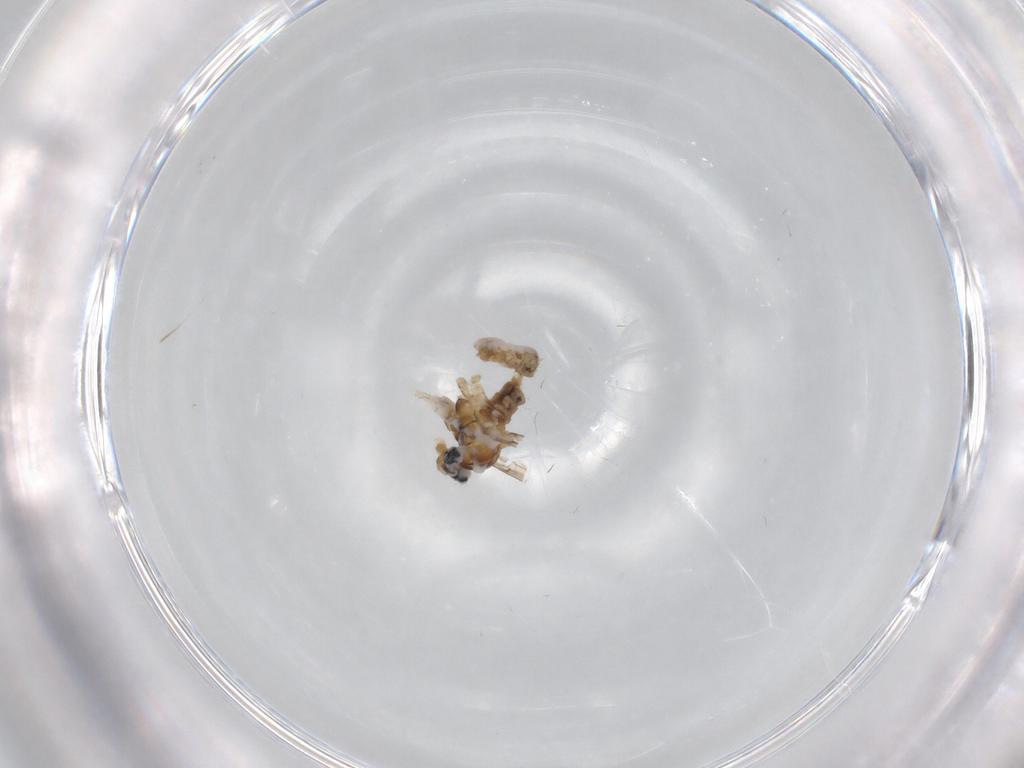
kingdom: Animalia
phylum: Arthropoda
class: Insecta
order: Diptera
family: Cecidomyiidae
